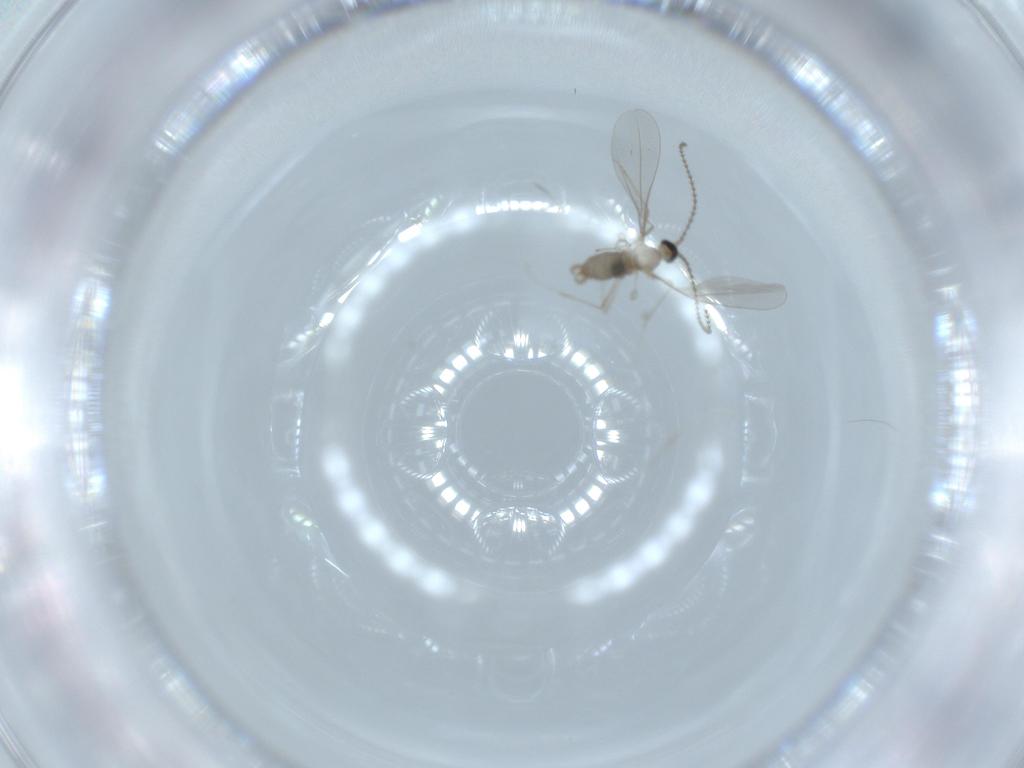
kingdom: Animalia
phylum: Arthropoda
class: Insecta
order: Diptera
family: Cecidomyiidae
